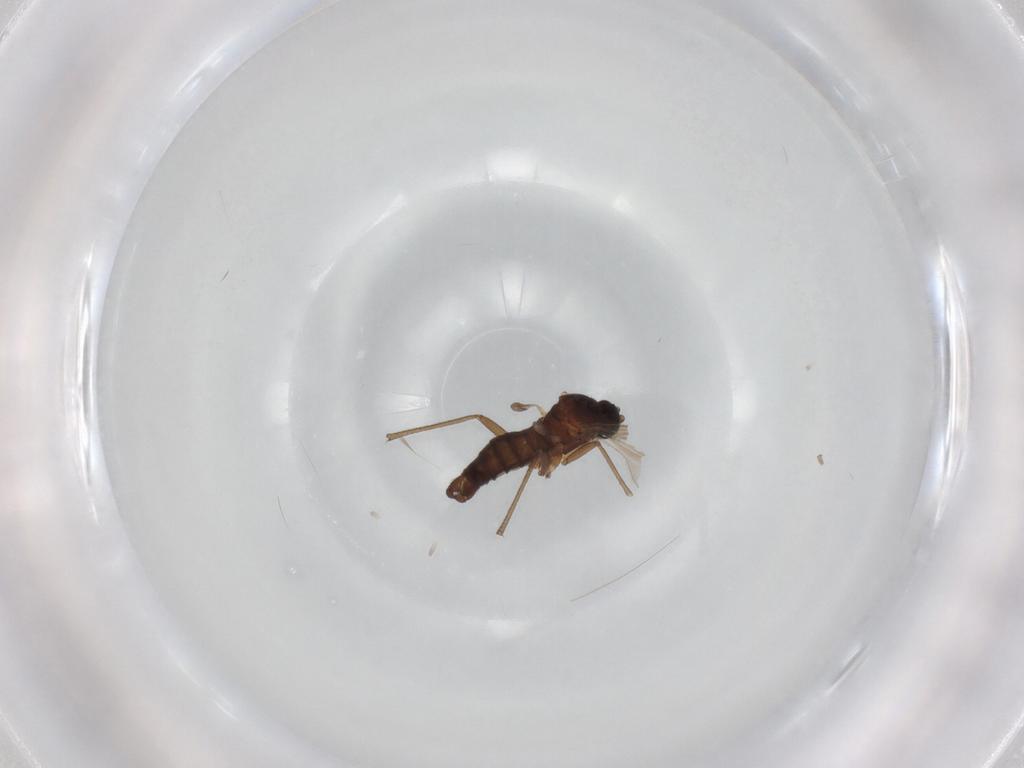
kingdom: Animalia
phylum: Arthropoda
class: Insecta
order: Diptera
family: Sciaridae
